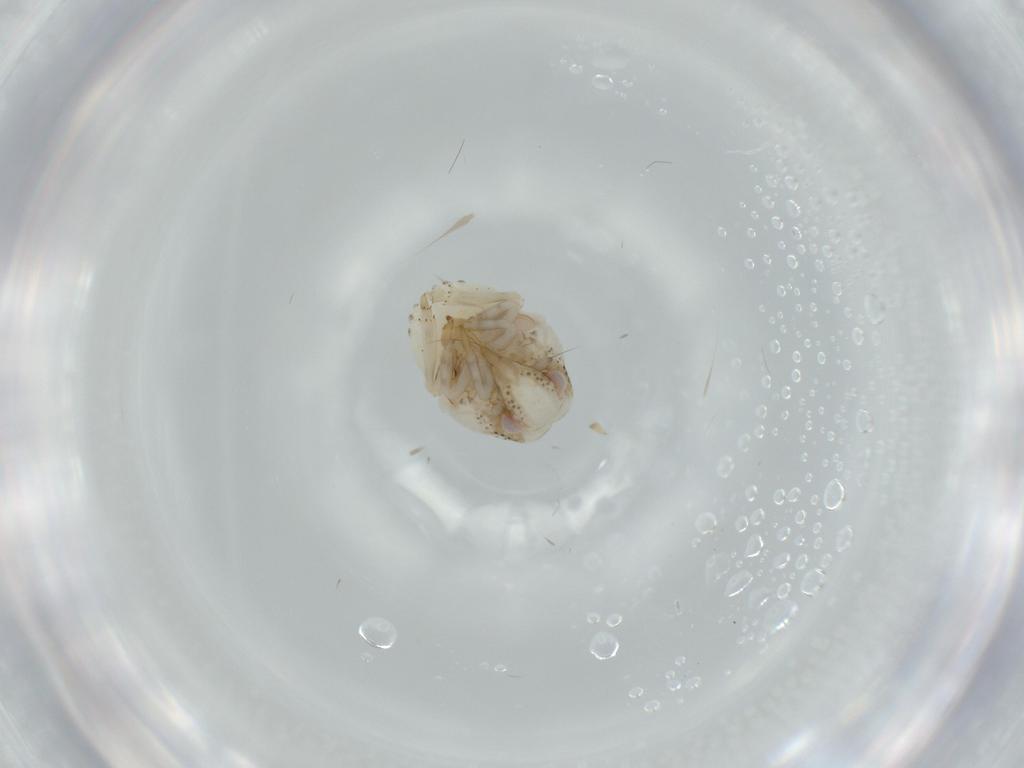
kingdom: Animalia
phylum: Arthropoda
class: Insecta
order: Hemiptera
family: Acanaloniidae
